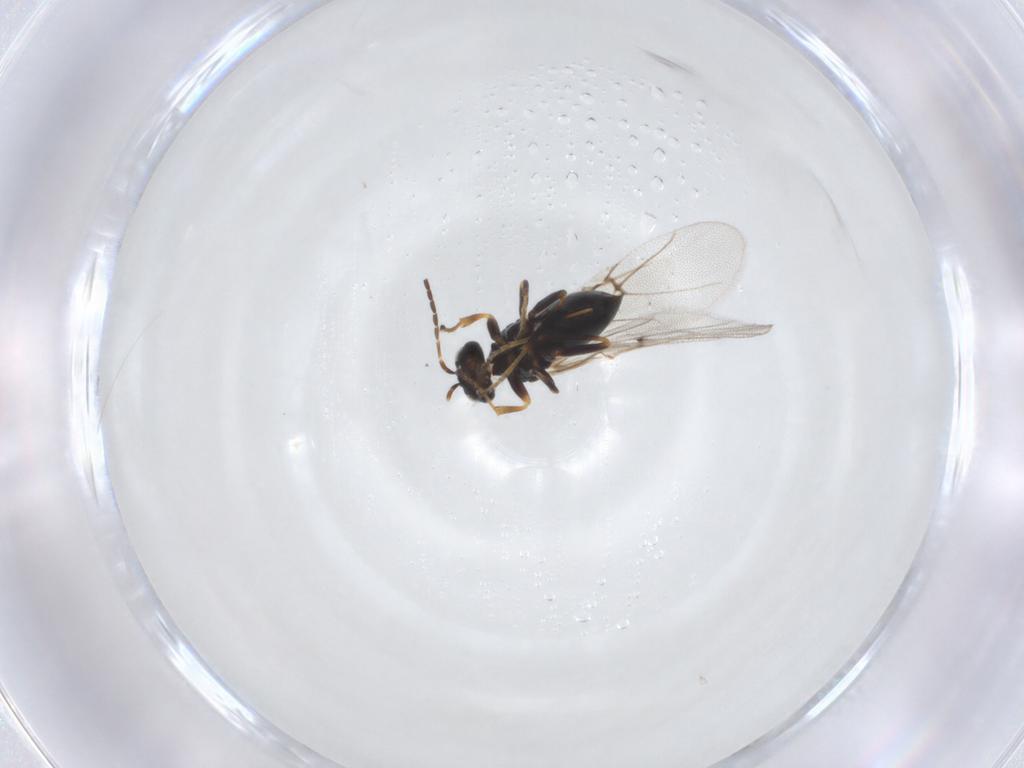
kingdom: Animalia
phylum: Arthropoda
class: Insecta
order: Hymenoptera
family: Cynipidae
